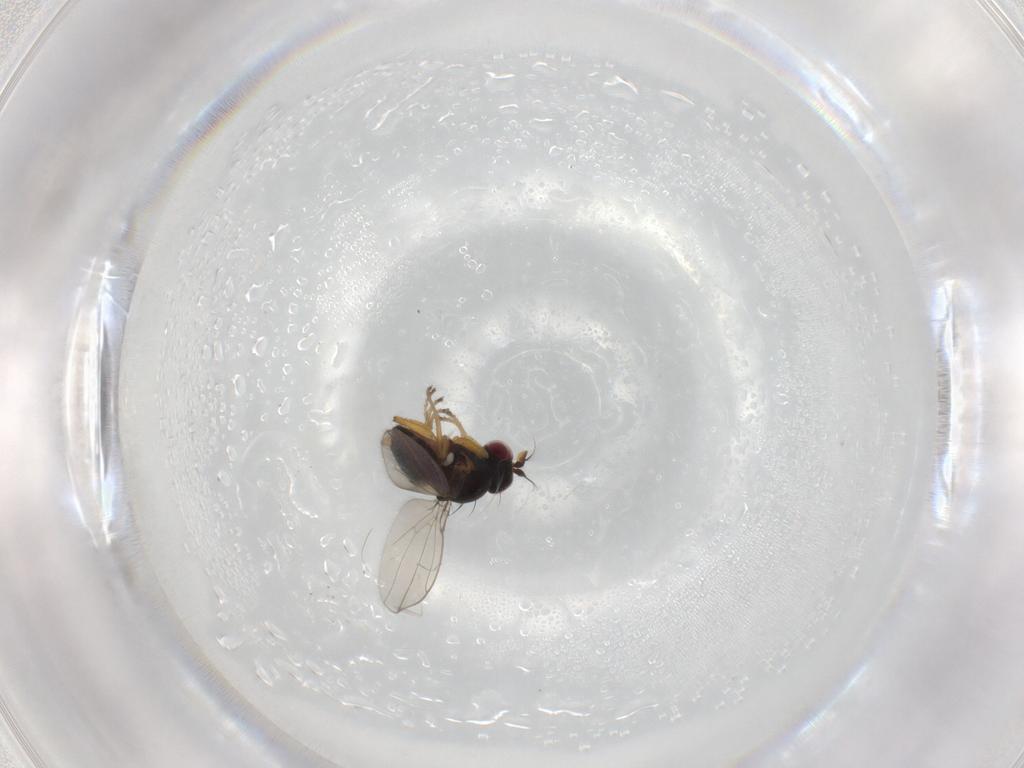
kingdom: Animalia
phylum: Arthropoda
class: Insecta
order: Diptera
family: Ephydridae
